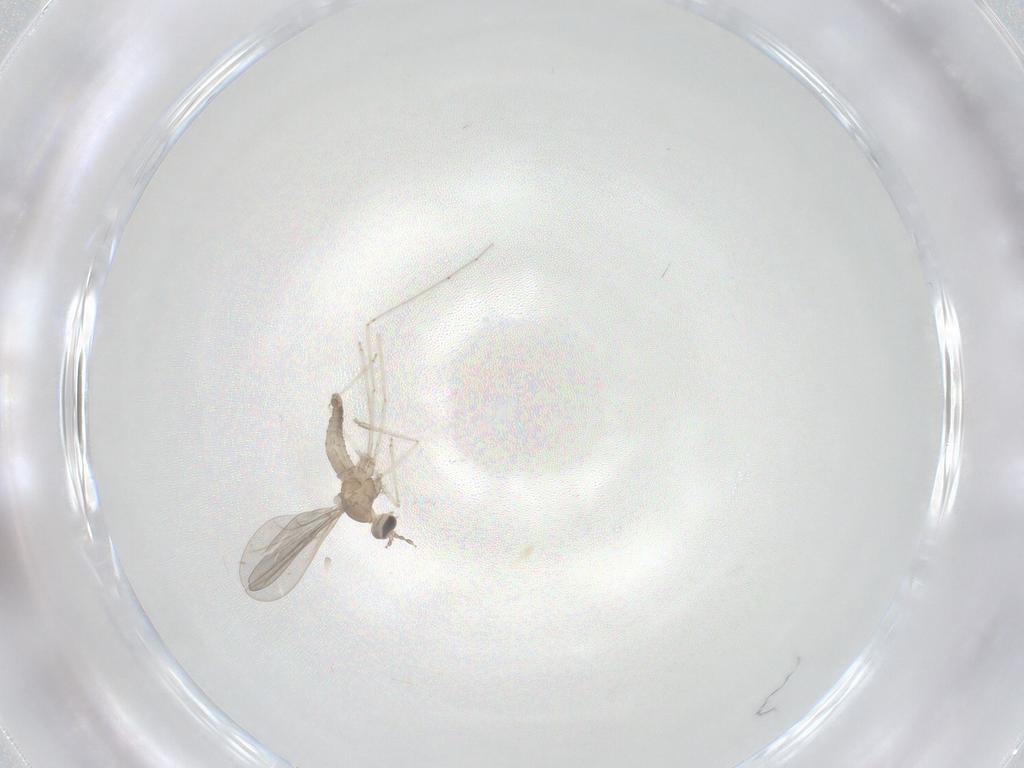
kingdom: Animalia
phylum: Arthropoda
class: Insecta
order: Diptera
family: Cecidomyiidae
